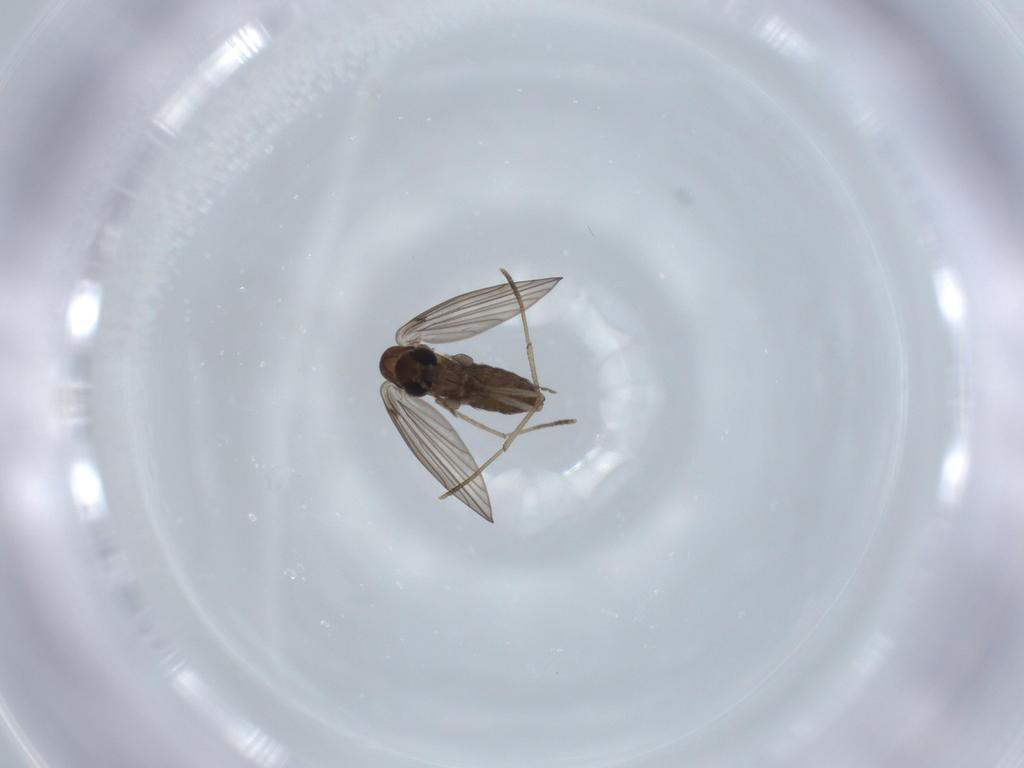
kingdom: Animalia
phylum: Arthropoda
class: Insecta
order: Diptera
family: Psychodidae
